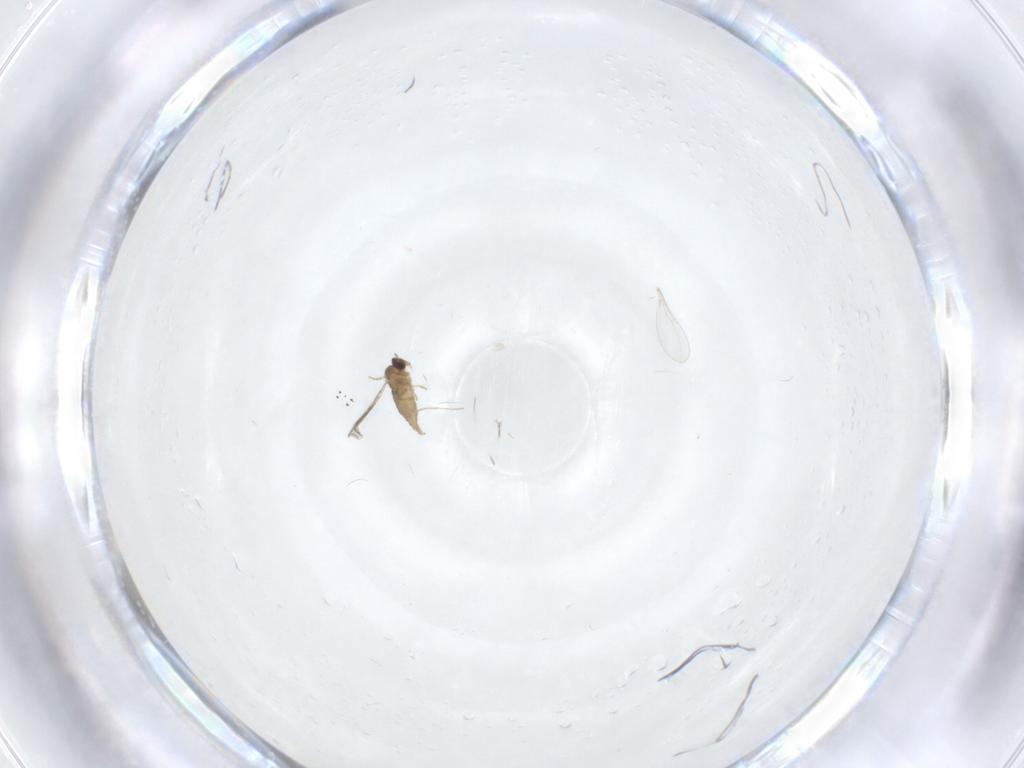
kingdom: Animalia
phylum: Arthropoda
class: Insecta
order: Diptera
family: Cecidomyiidae
